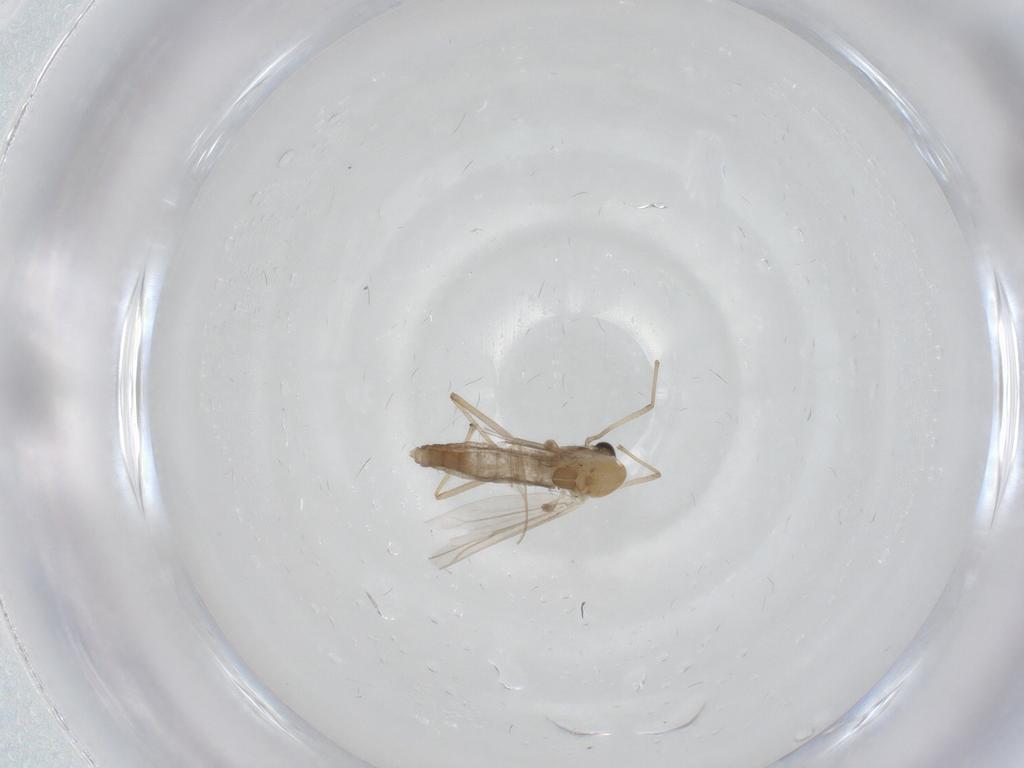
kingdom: Animalia
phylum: Arthropoda
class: Insecta
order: Diptera
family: Chironomidae
